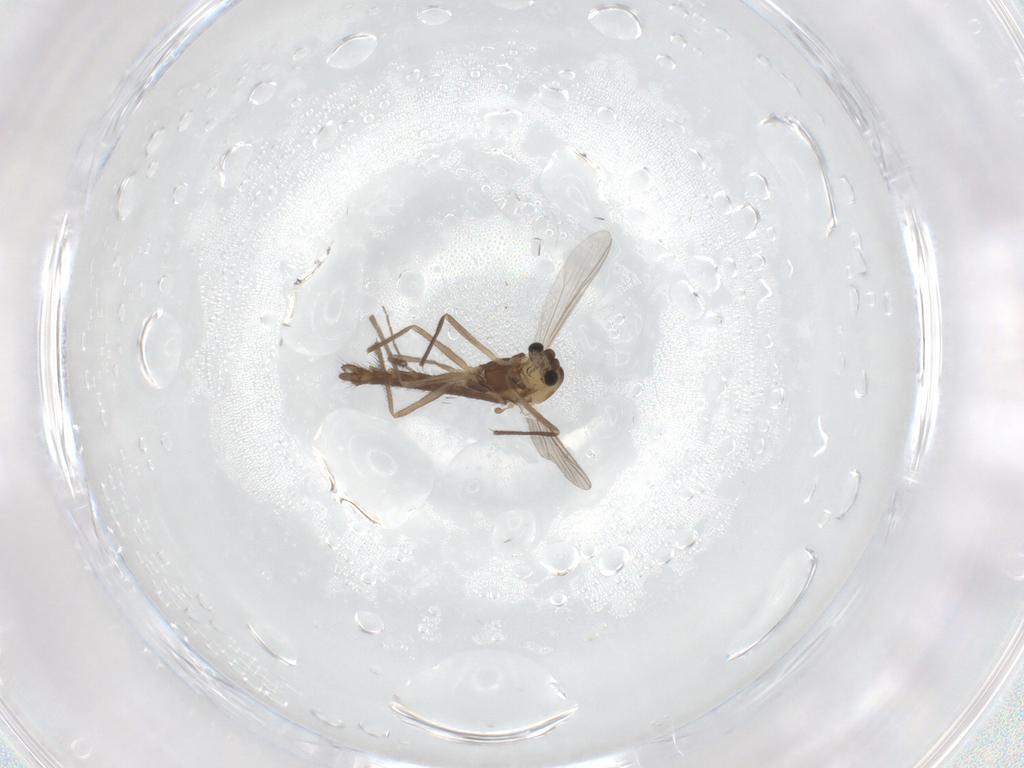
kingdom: Animalia
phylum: Arthropoda
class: Insecta
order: Diptera
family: Chironomidae
